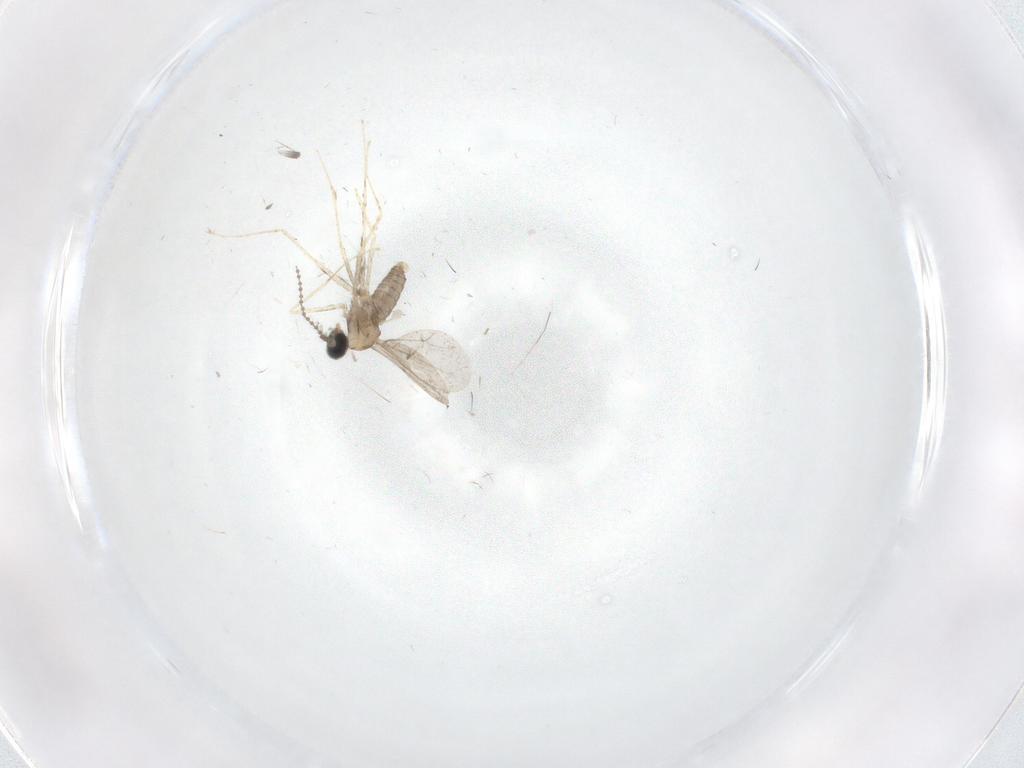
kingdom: Animalia
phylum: Arthropoda
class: Insecta
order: Diptera
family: Cecidomyiidae
